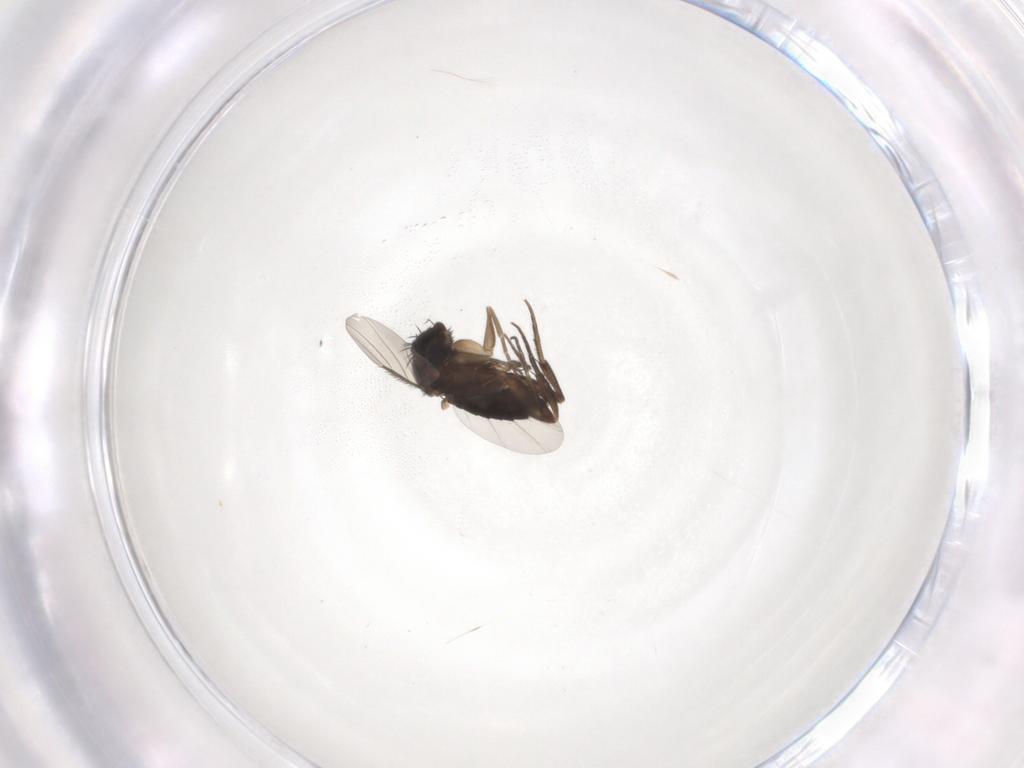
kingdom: Animalia
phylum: Arthropoda
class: Insecta
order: Diptera
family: Phoridae
